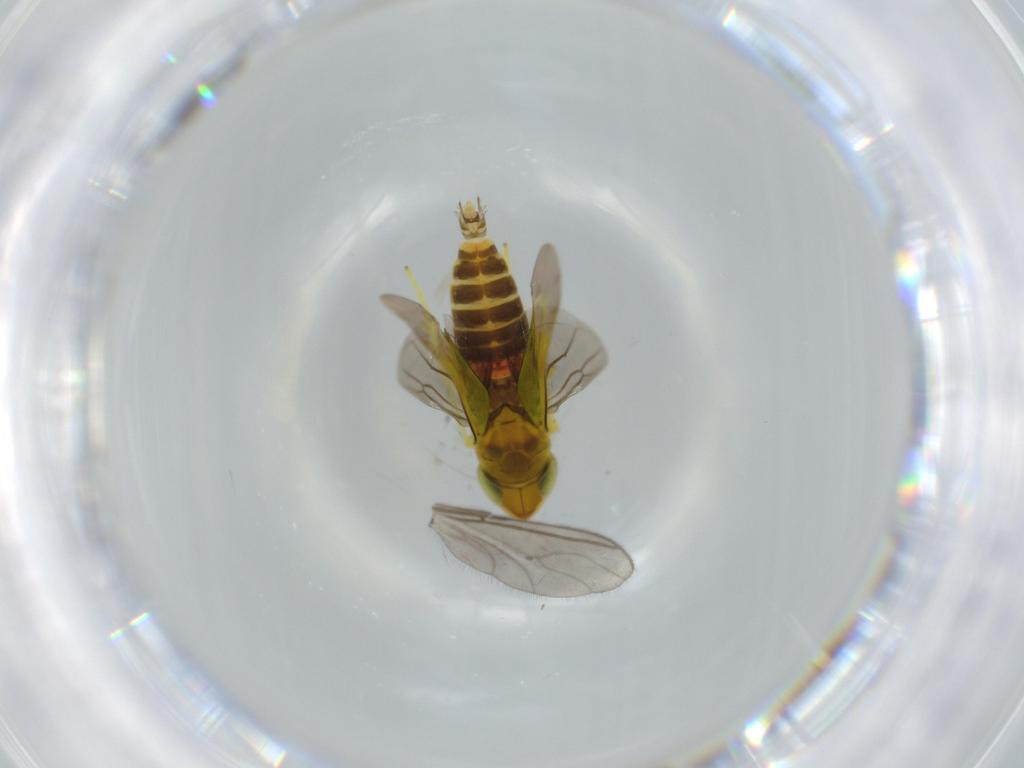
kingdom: Animalia
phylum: Arthropoda
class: Insecta
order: Hemiptera
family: Cicadellidae
